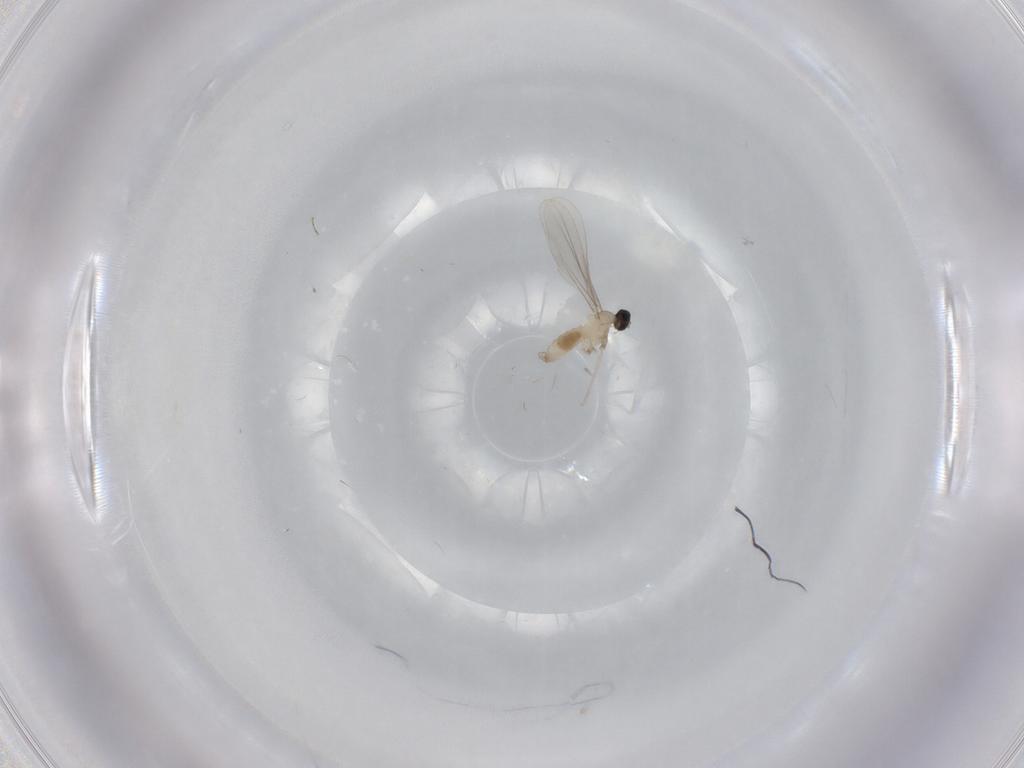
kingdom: Animalia
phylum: Arthropoda
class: Insecta
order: Diptera
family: Cecidomyiidae
